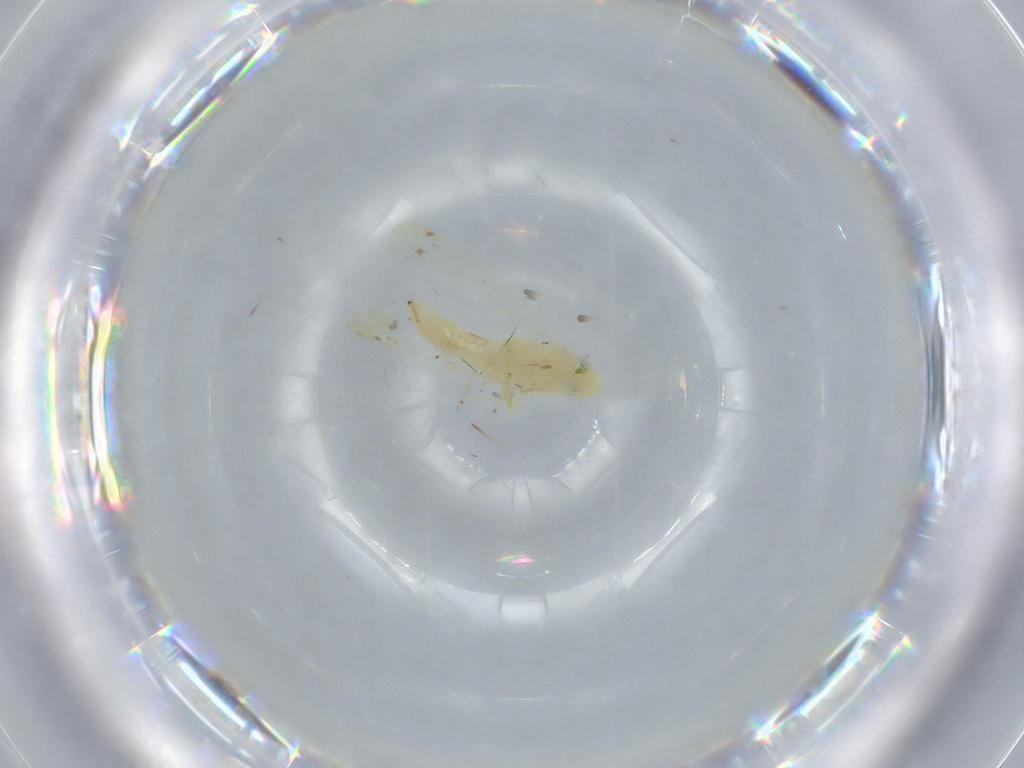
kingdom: Animalia
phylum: Arthropoda
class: Insecta
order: Hemiptera
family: Cicadellidae
